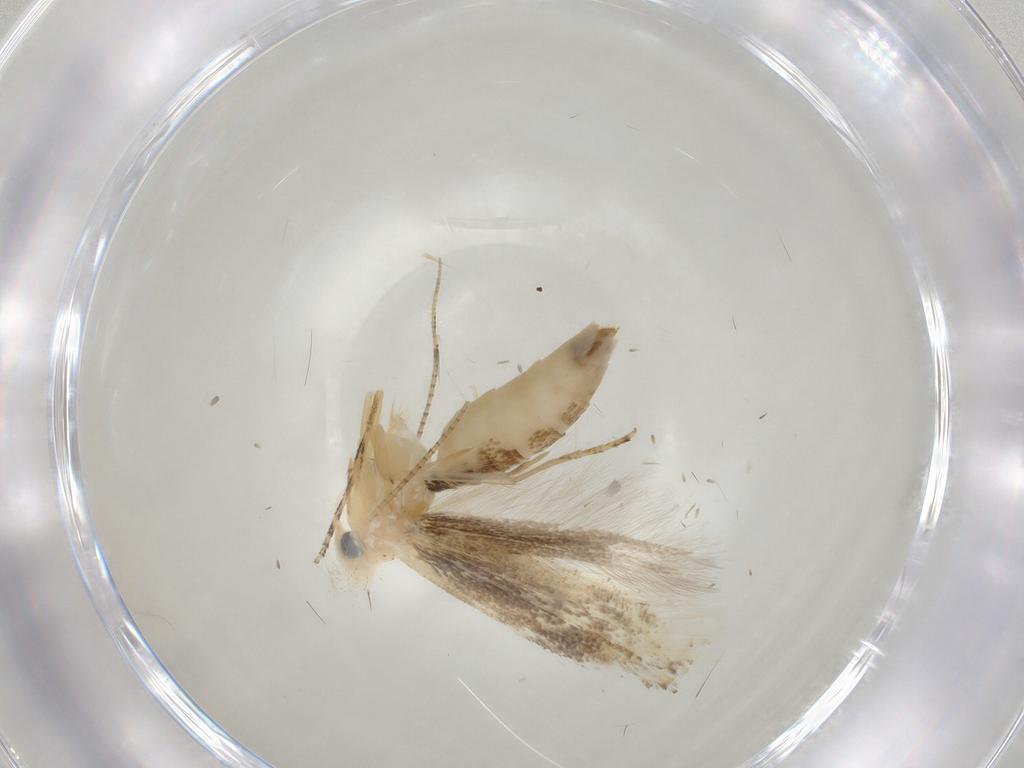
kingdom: Animalia
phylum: Arthropoda
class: Insecta
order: Lepidoptera
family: Bucculatricidae
